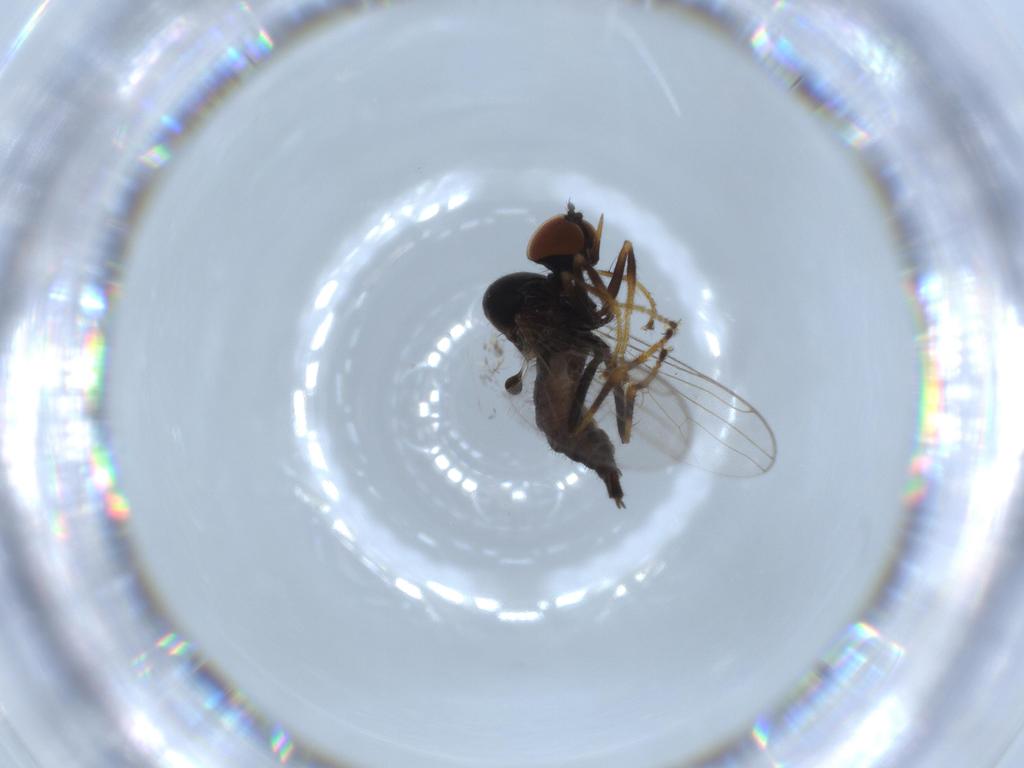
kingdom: Animalia
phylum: Arthropoda
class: Insecta
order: Diptera
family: Hybotidae
